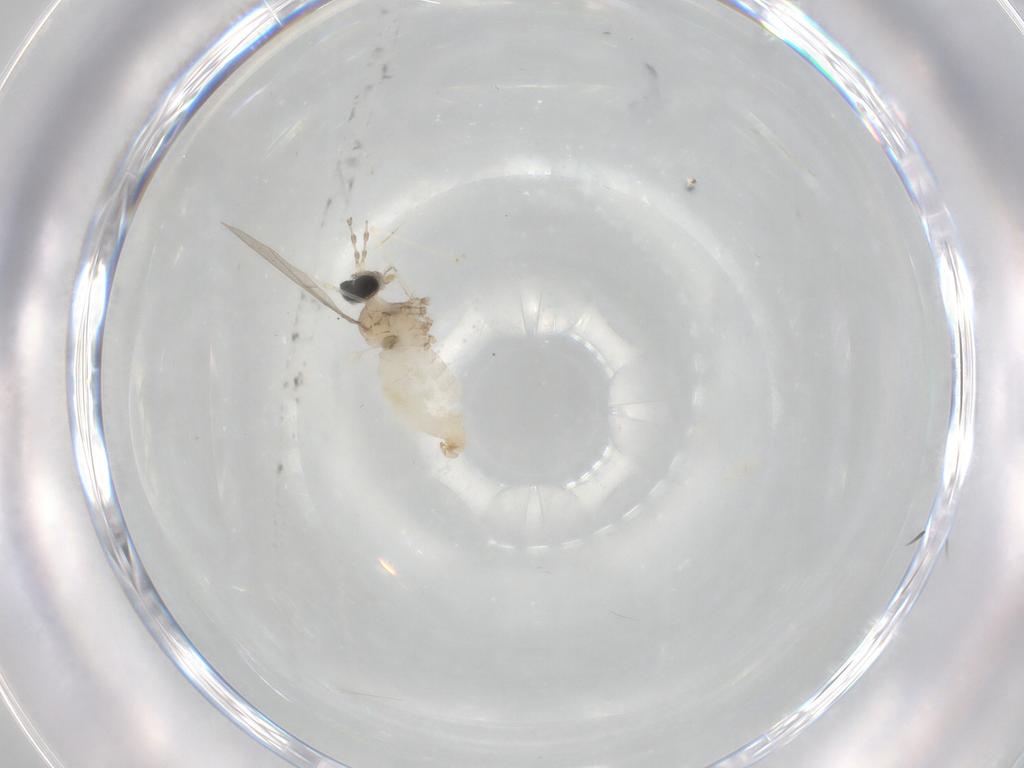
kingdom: Animalia
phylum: Arthropoda
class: Insecta
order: Diptera
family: Cecidomyiidae
